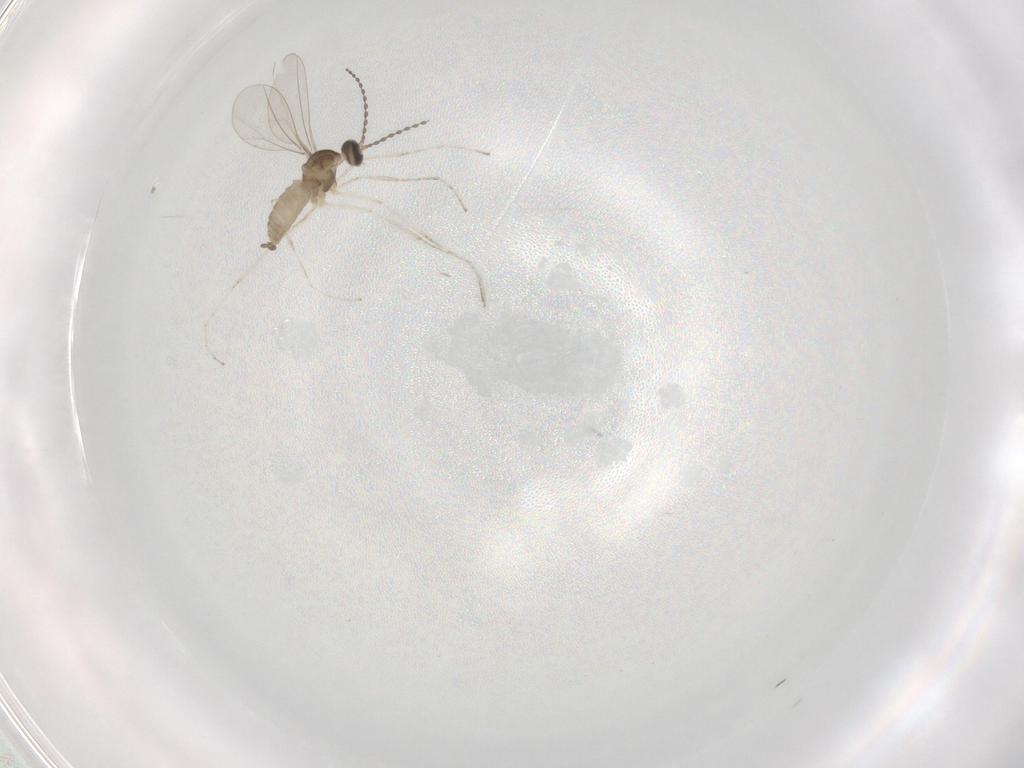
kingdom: Animalia
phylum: Arthropoda
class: Insecta
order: Diptera
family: Cecidomyiidae
